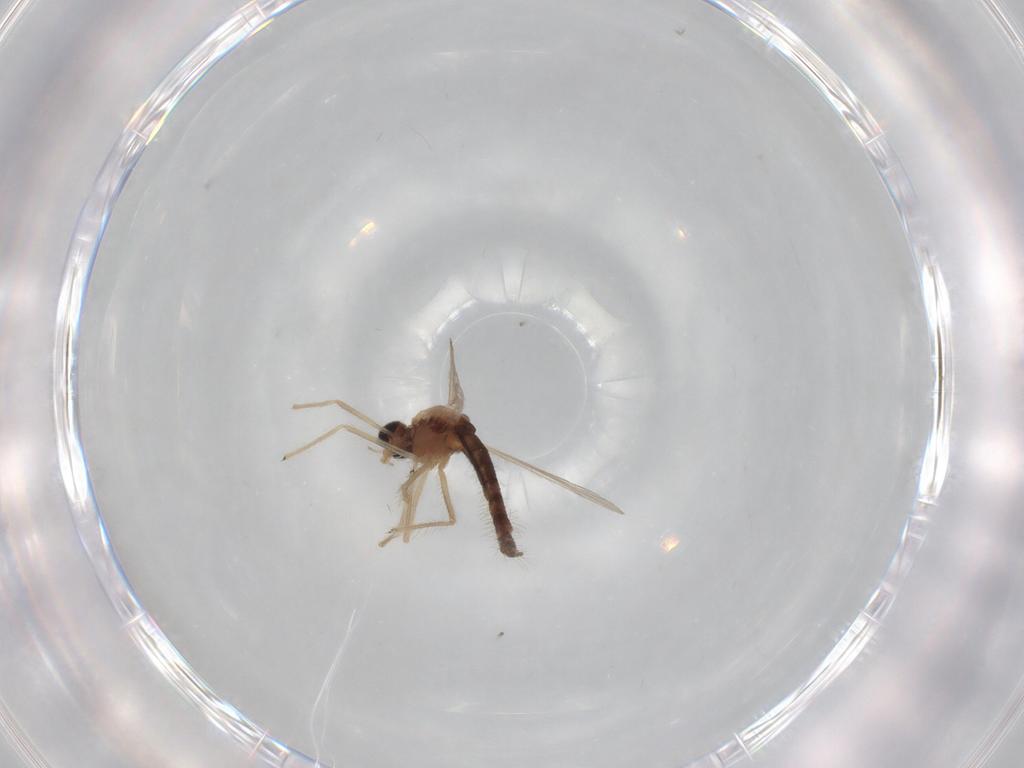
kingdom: Animalia
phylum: Arthropoda
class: Insecta
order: Diptera
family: Chironomidae
